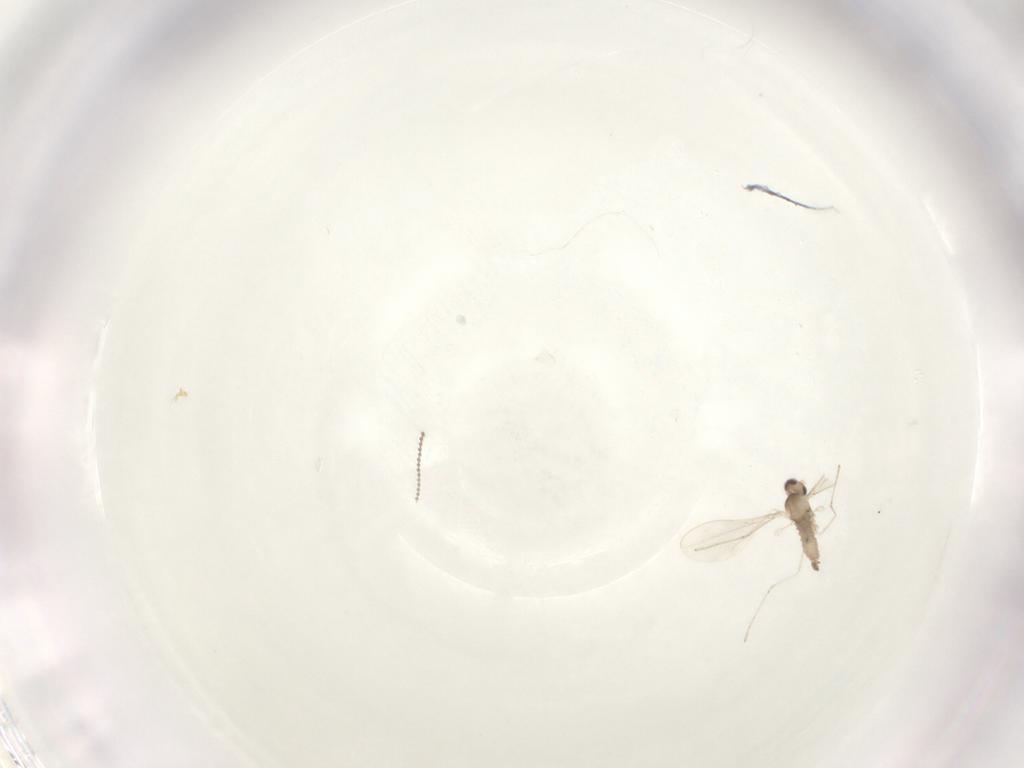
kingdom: Animalia
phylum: Arthropoda
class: Insecta
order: Diptera
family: Cecidomyiidae
